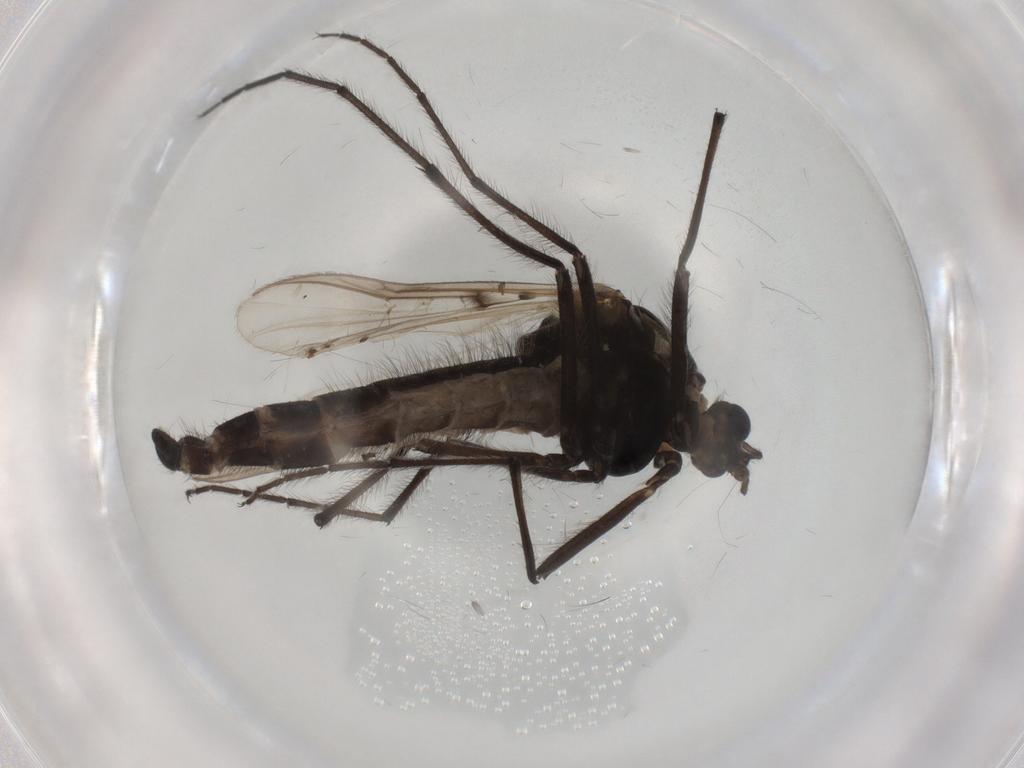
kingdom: Animalia
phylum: Arthropoda
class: Insecta
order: Diptera
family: Chironomidae
